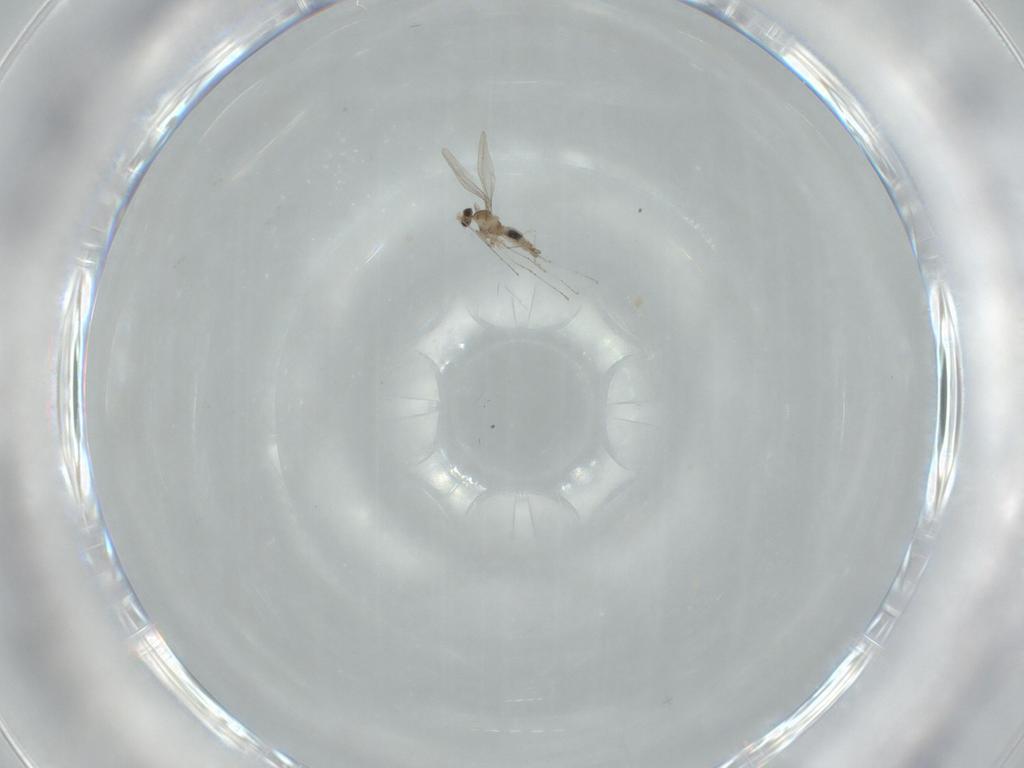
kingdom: Animalia
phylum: Arthropoda
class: Insecta
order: Diptera
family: Cecidomyiidae
